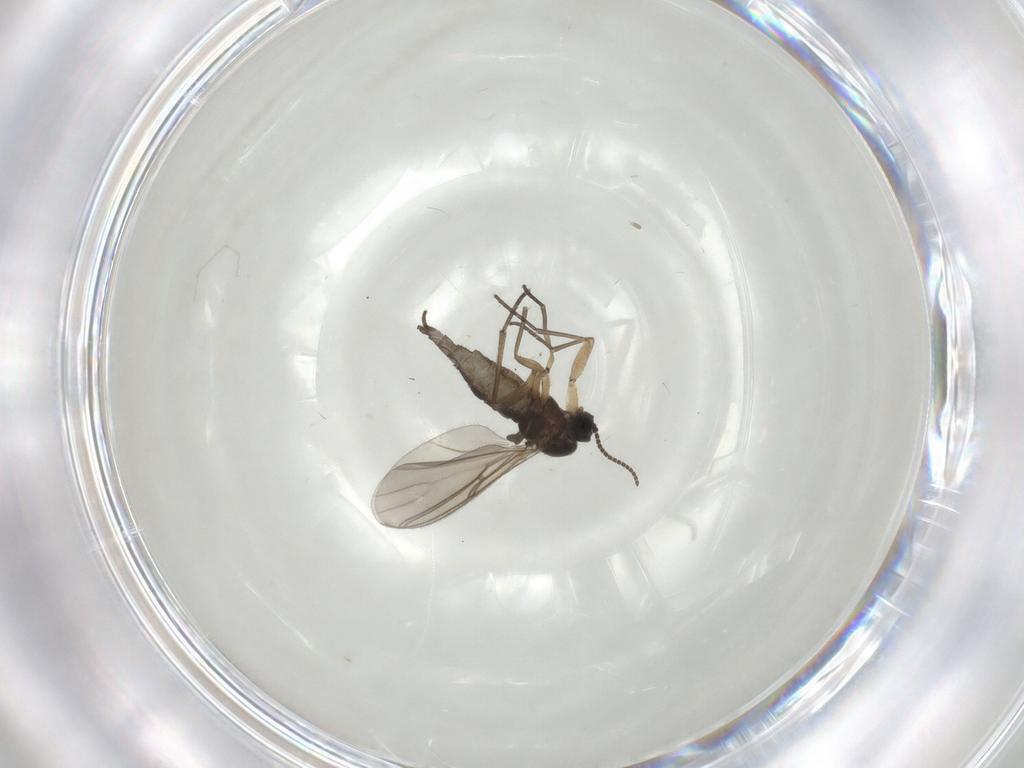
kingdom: Animalia
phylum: Arthropoda
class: Insecta
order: Diptera
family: Sciaridae
